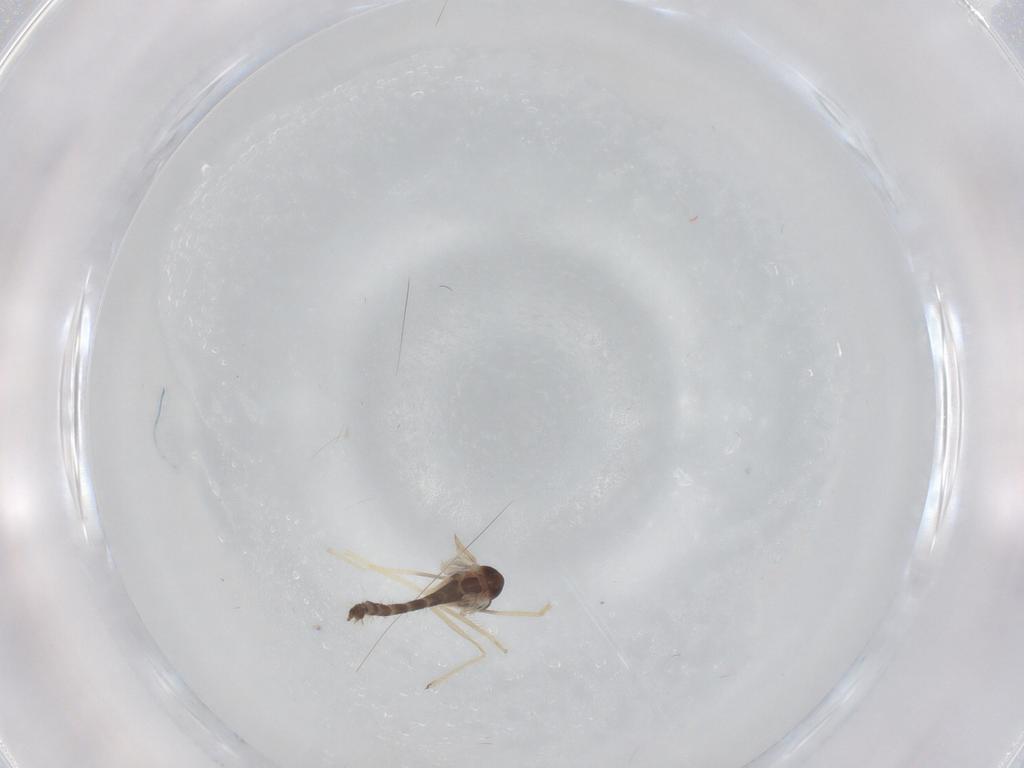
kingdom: Animalia
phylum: Arthropoda
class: Insecta
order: Diptera
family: Chironomidae
